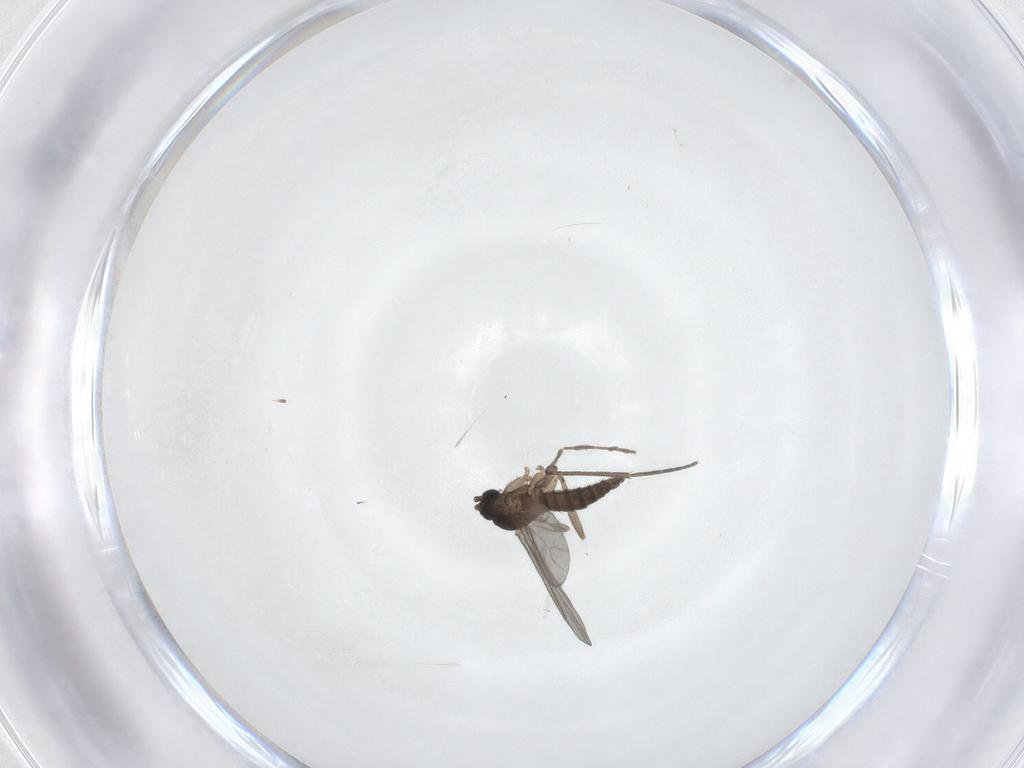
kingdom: Animalia
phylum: Arthropoda
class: Insecta
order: Diptera
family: Sciaridae
